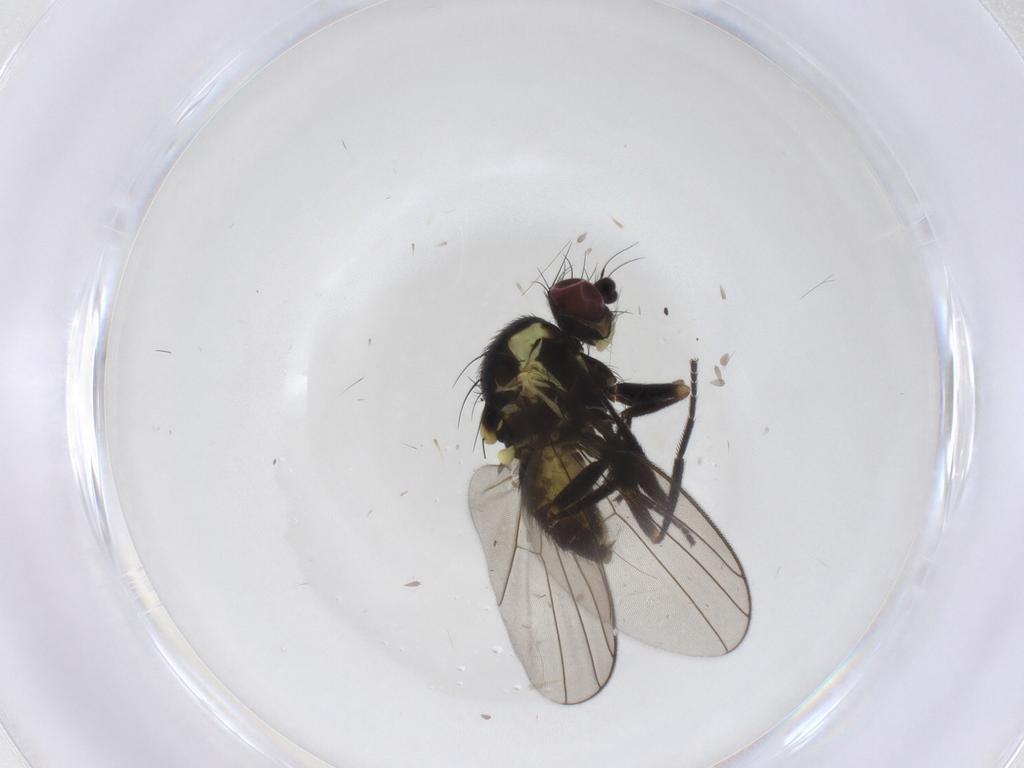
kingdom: Animalia
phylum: Arthropoda
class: Insecta
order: Diptera
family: Agromyzidae
